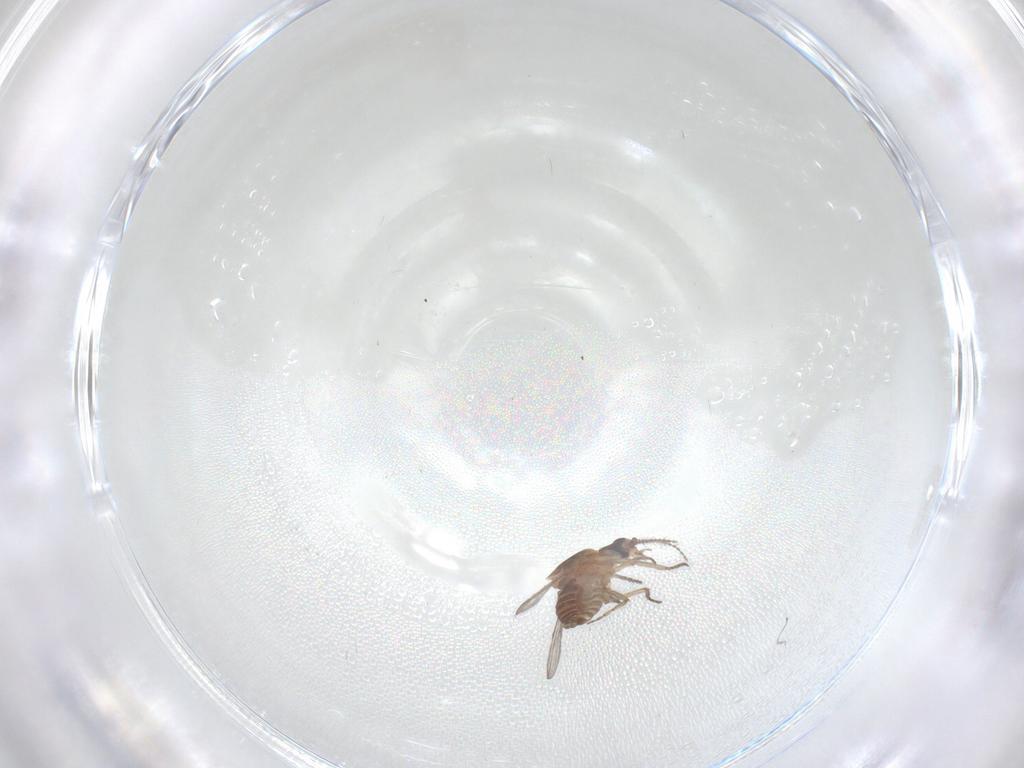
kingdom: Animalia
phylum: Arthropoda
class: Insecta
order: Diptera
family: Ceratopogonidae
